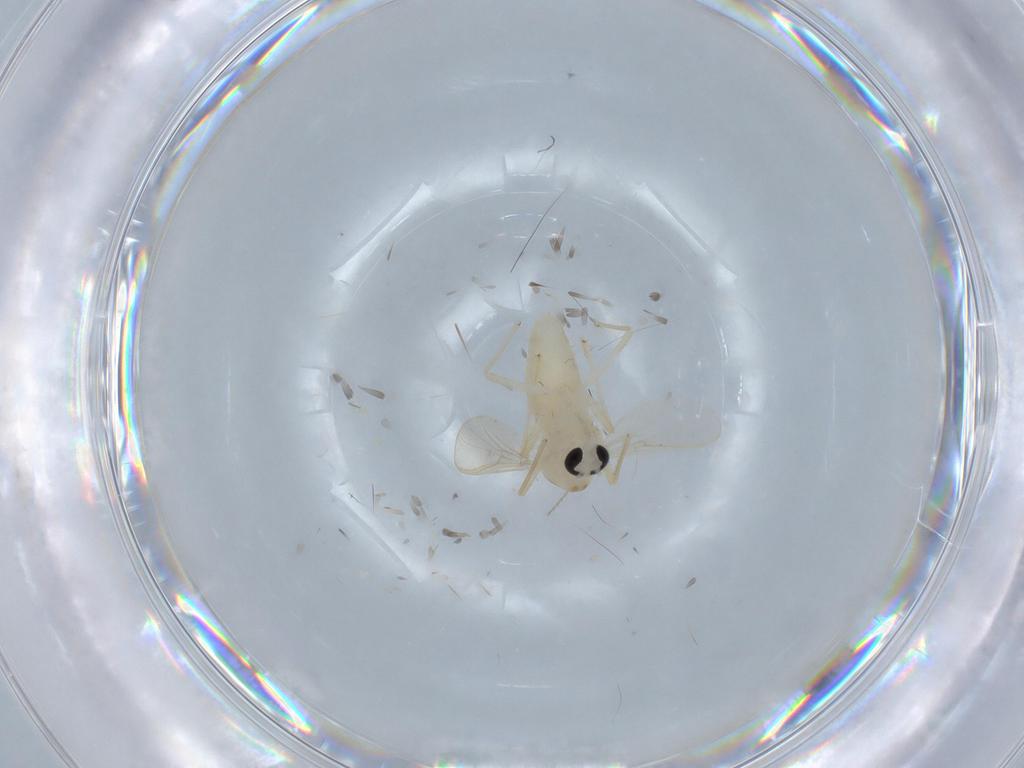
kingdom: Animalia
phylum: Arthropoda
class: Insecta
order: Diptera
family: Chironomidae
